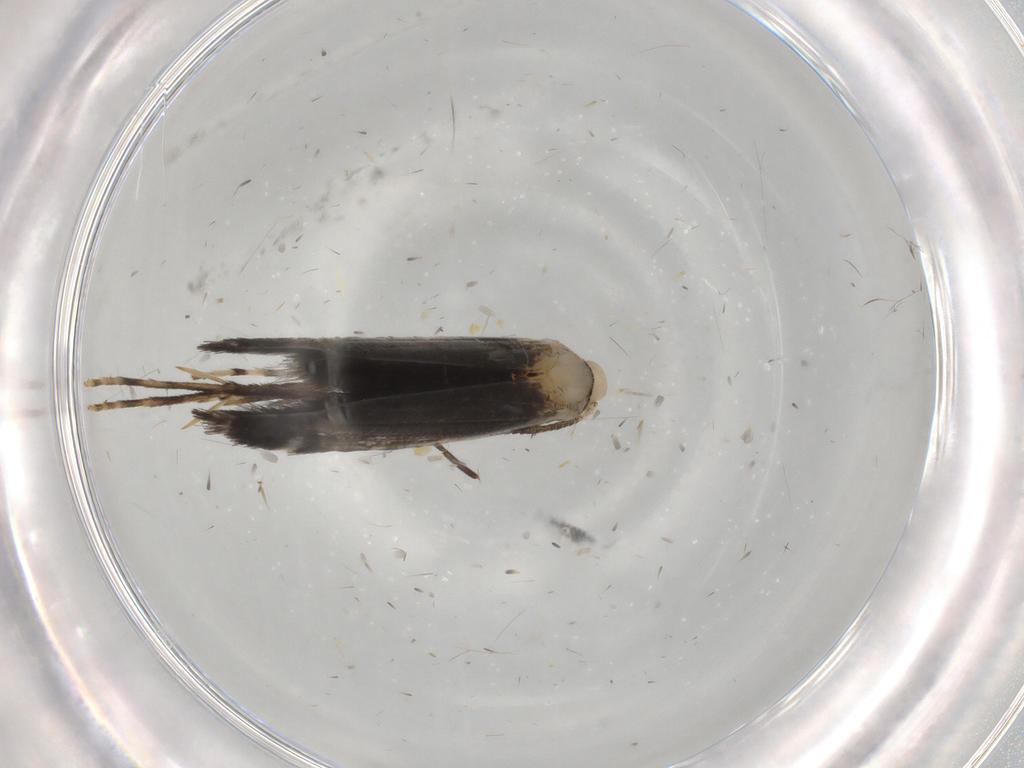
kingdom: Animalia
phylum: Arthropoda
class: Insecta
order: Lepidoptera
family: Gracillariidae
